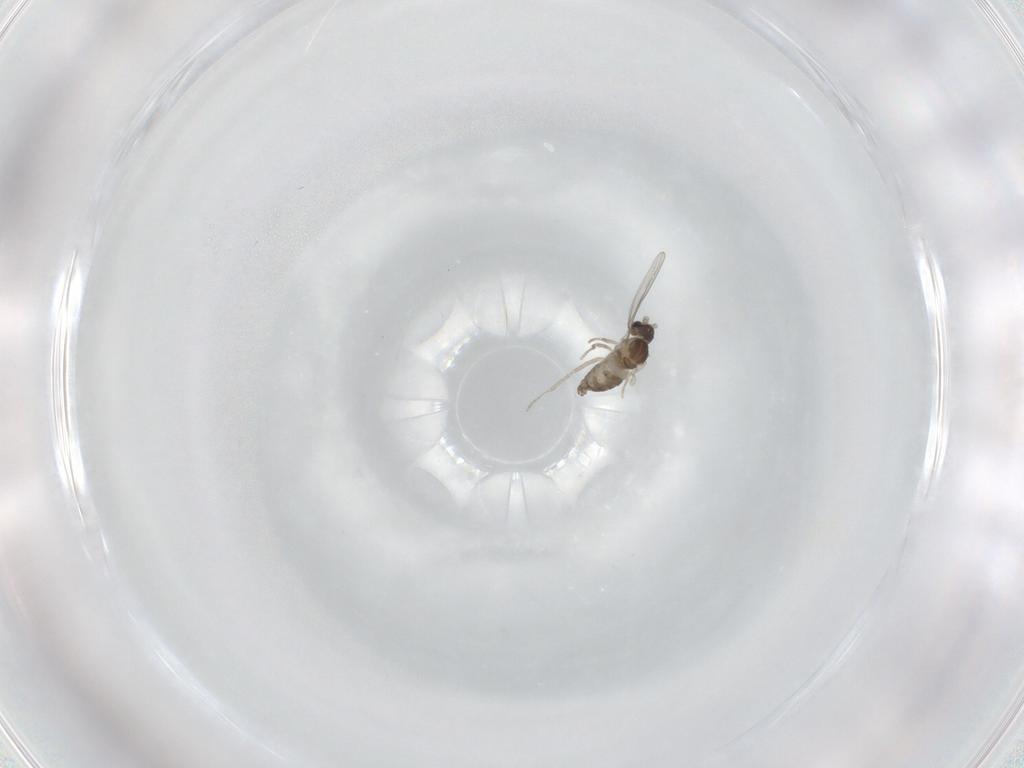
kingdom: Animalia
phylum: Arthropoda
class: Insecta
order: Diptera
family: Cecidomyiidae
